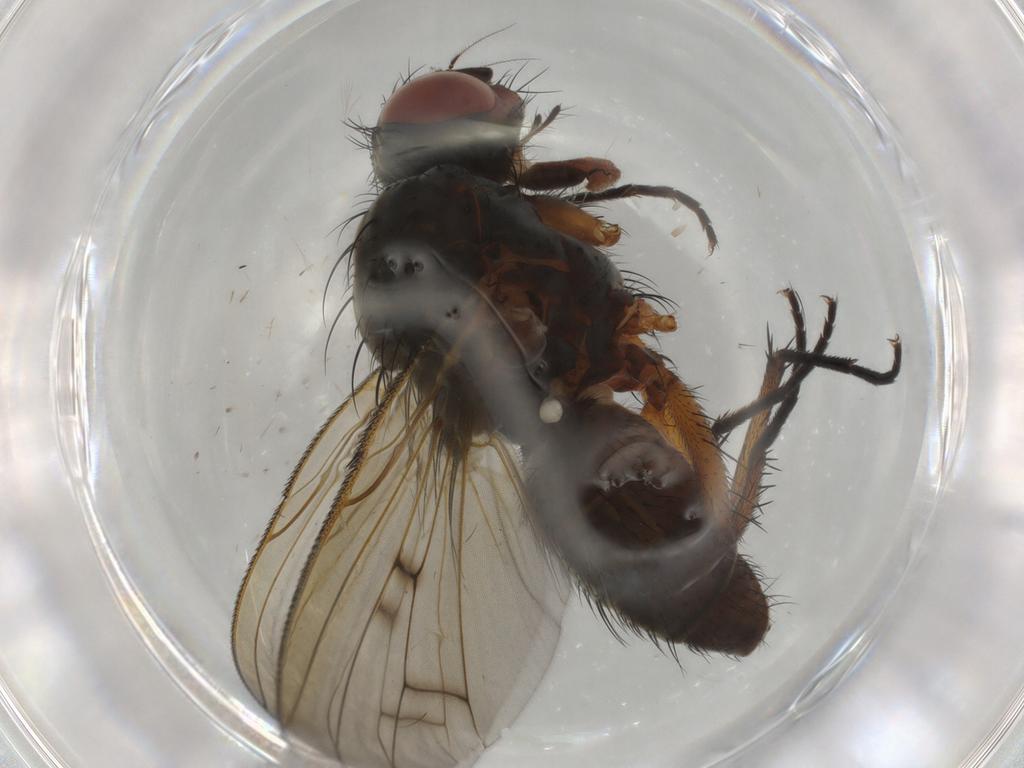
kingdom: Animalia
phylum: Arthropoda
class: Insecta
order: Diptera
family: Anthomyiidae
